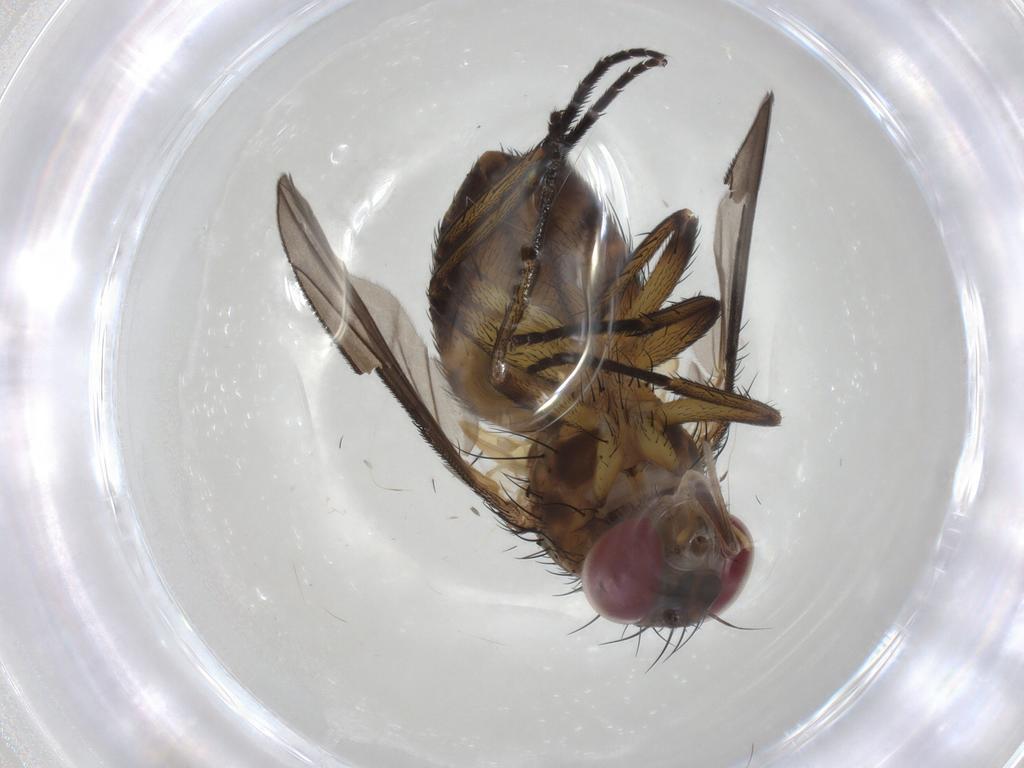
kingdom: Animalia
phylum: Arthropoda
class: Insecta
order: Diptera
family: Tachinidae
